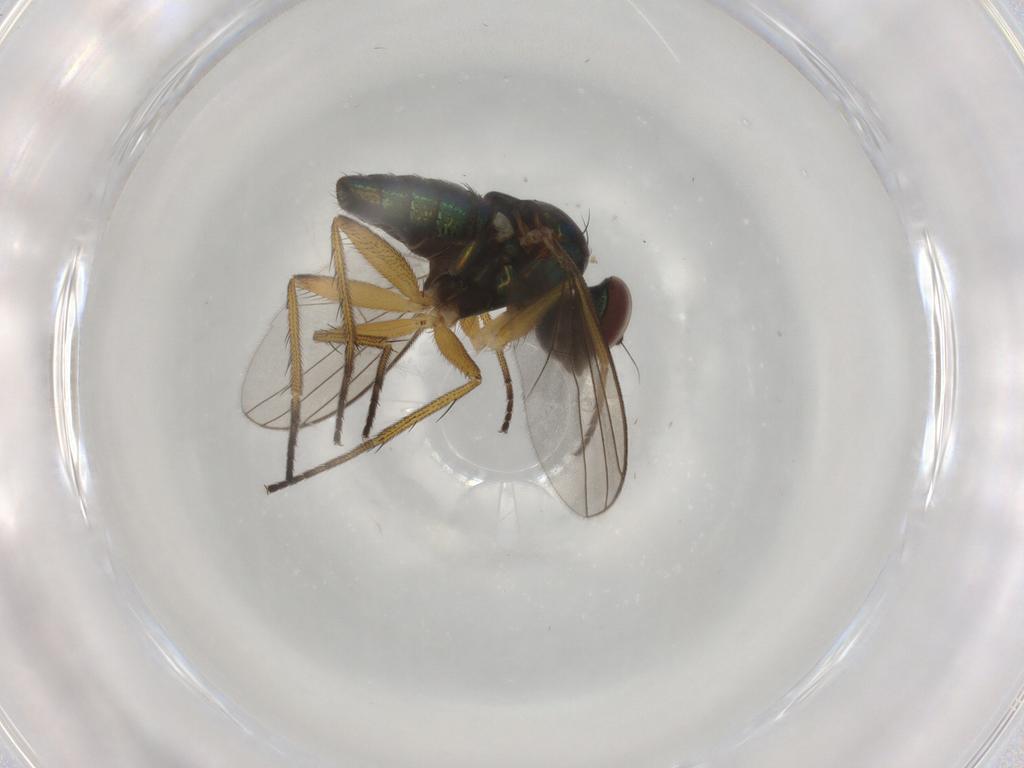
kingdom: Animalia
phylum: Arthropoda
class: Insecta
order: Diptera
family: Dolichopodidae
